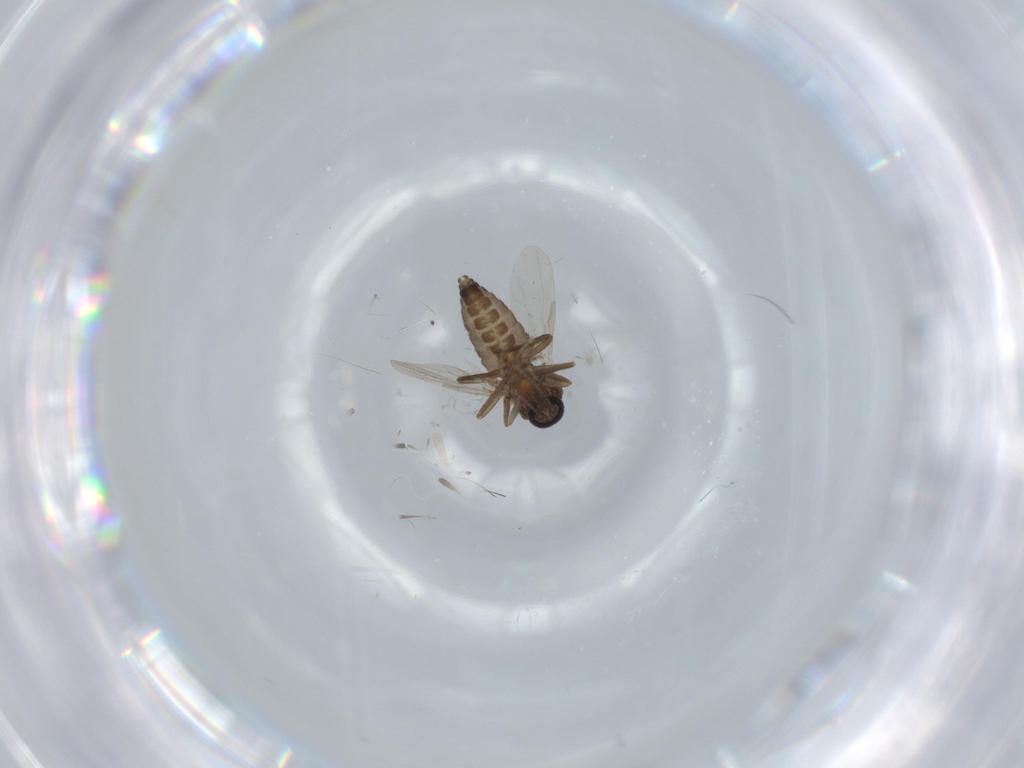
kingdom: Animalia
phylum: Arthropoda
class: Insecta
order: Diptera
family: Ceratopogonidae
